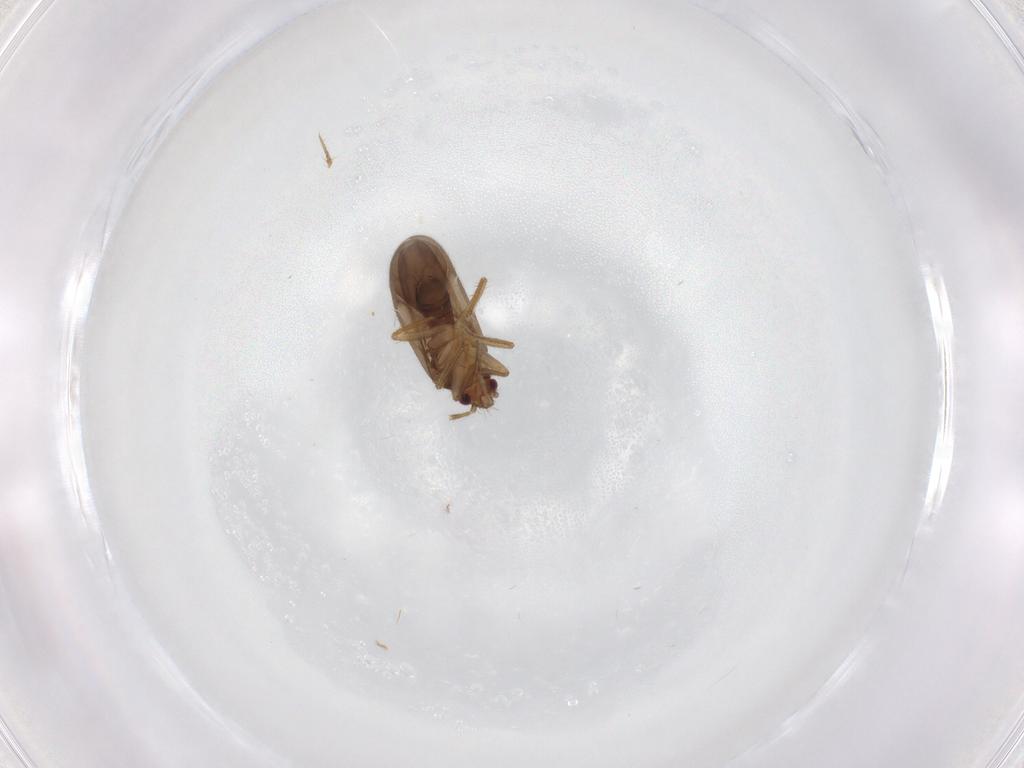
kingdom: Animalia
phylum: Arthropoda
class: Insecta
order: Hemiptera
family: Ceratocombidae
